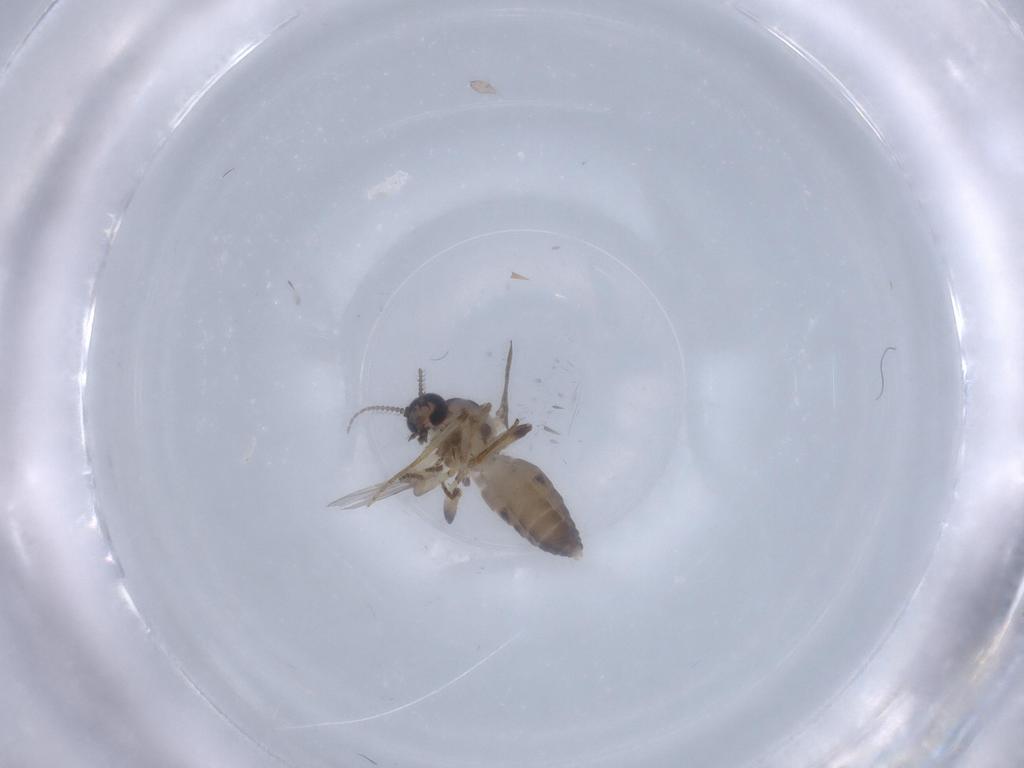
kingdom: Animalia
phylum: Arthropoda
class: Insecta
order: Diptera
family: Ceratopogonidae
